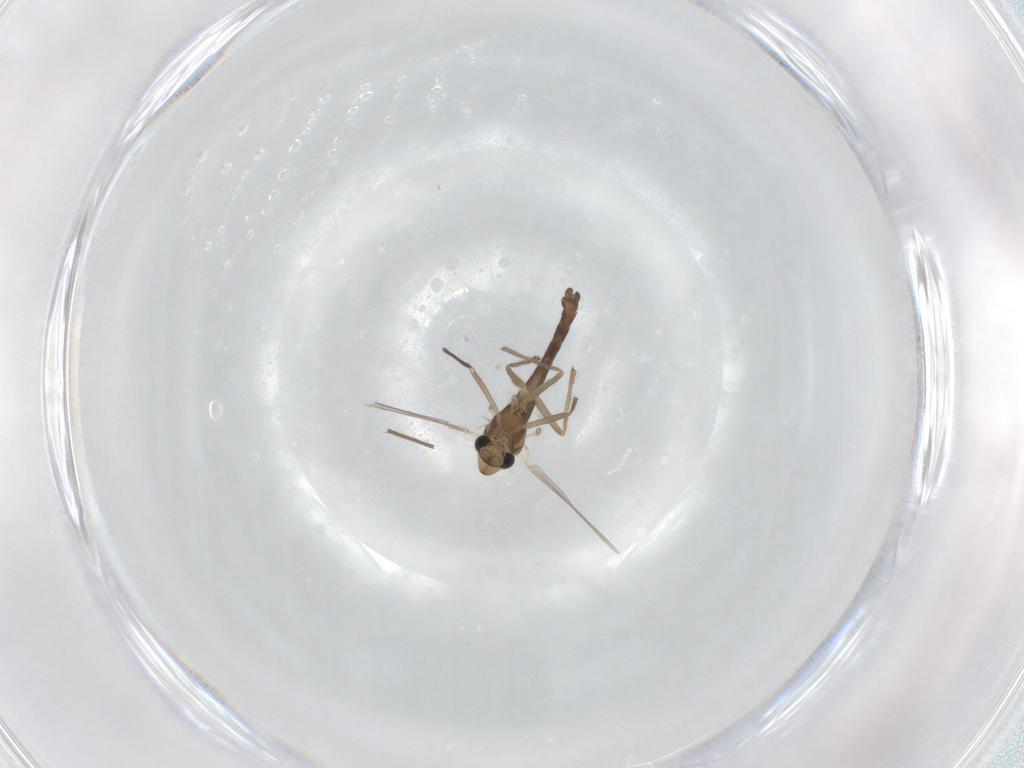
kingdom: Animalia
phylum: Arthropoda
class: Insecta
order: Diptera
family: Chironomidae
